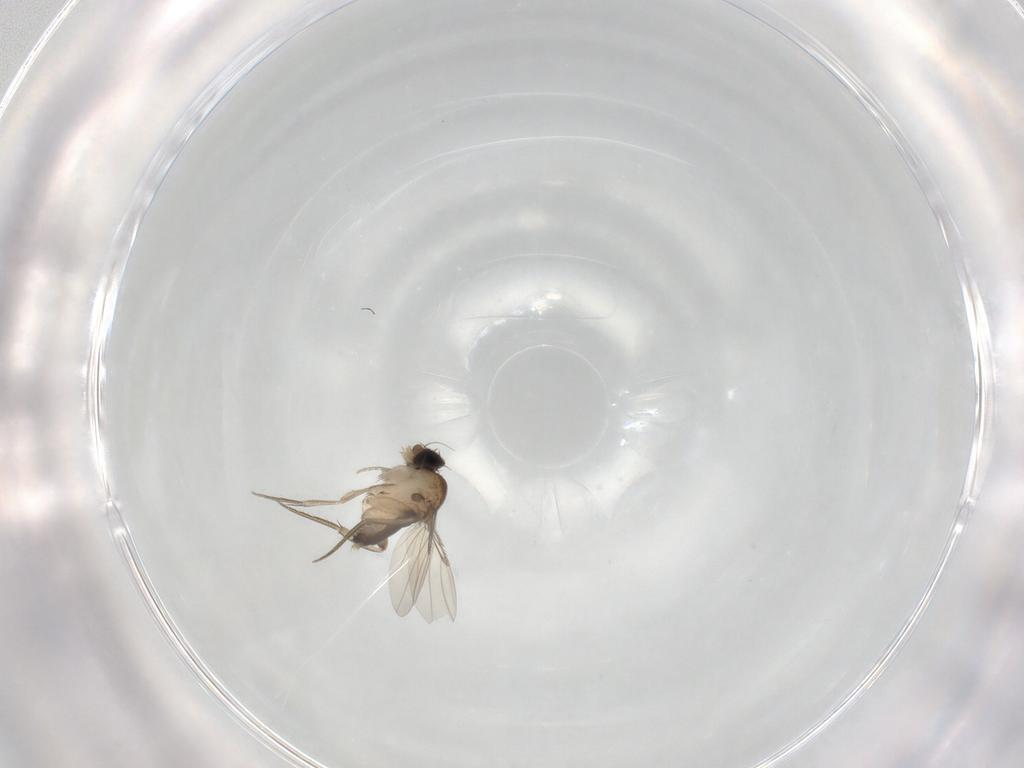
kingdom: Animalia
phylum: Arthropoda
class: Insecta
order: Diptera
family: Phoridae
